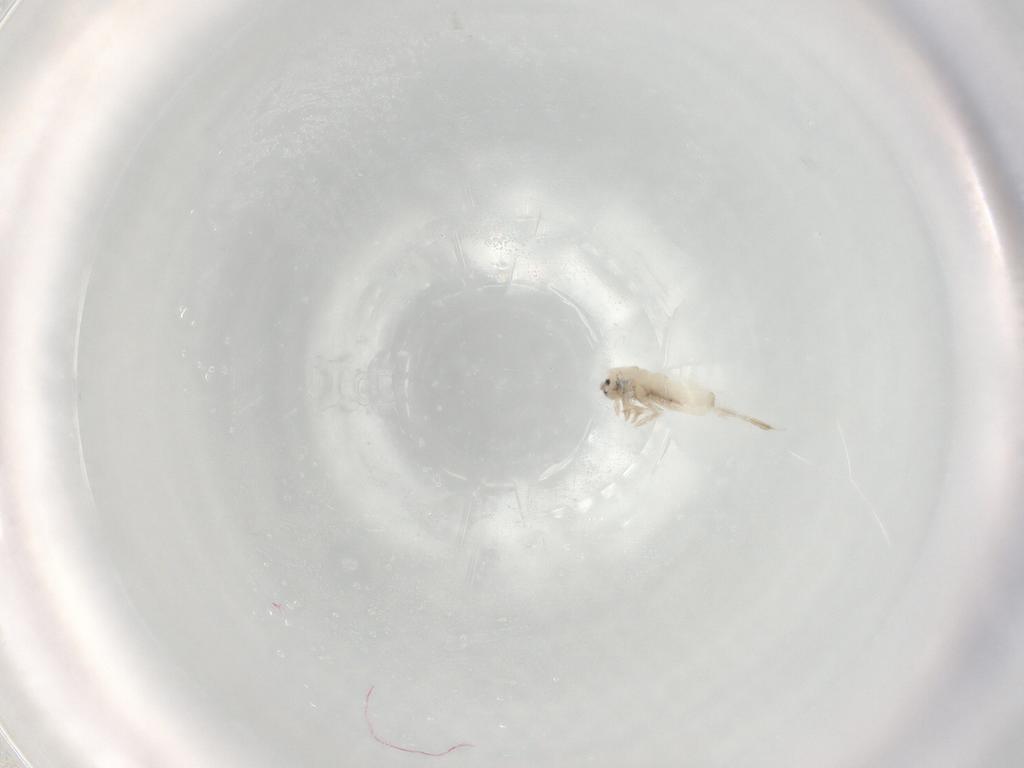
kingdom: Animalia
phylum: Arthropoda
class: Collembola
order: Entomobryomorpha
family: Entomobryidae
